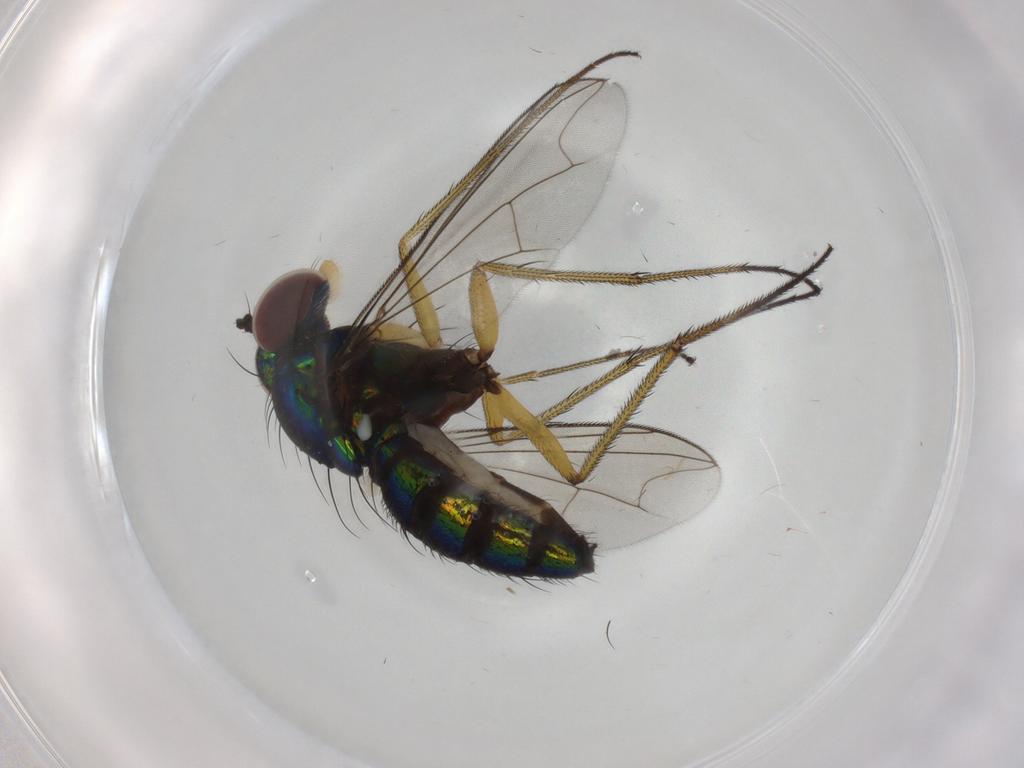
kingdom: Animalia
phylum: Arthropoda
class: Insecta
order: Diptera
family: Dolichopodidae
